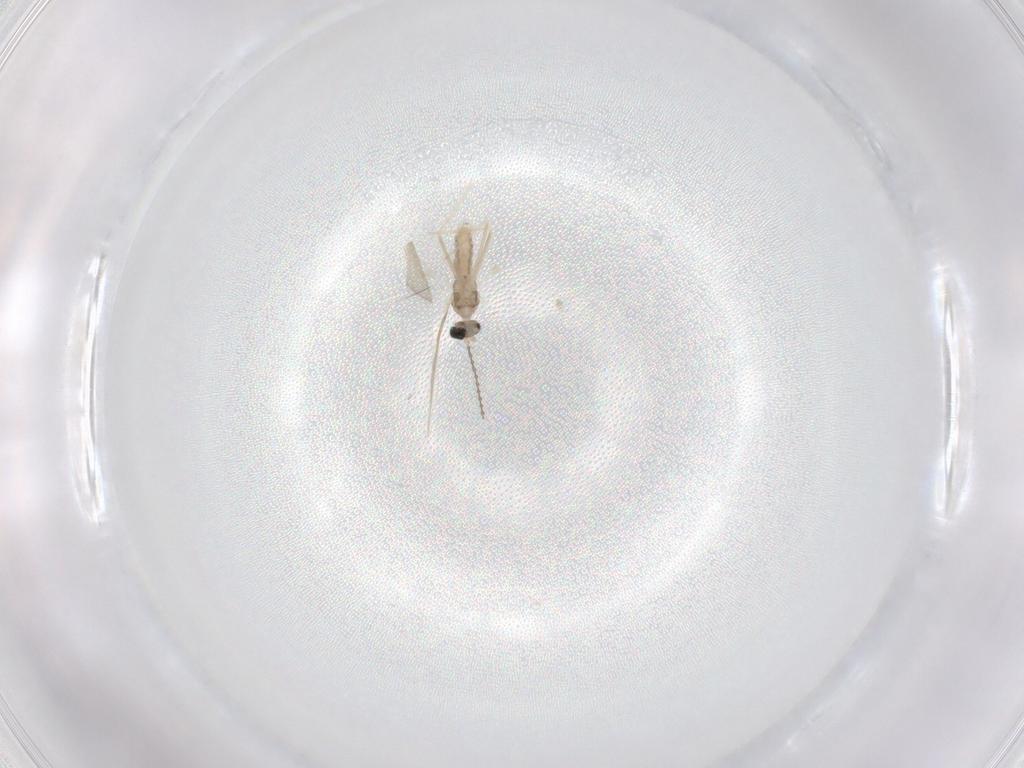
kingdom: Animalia
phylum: Arthropoda
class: Insecta
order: Diptera
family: Cecidomyiidae
